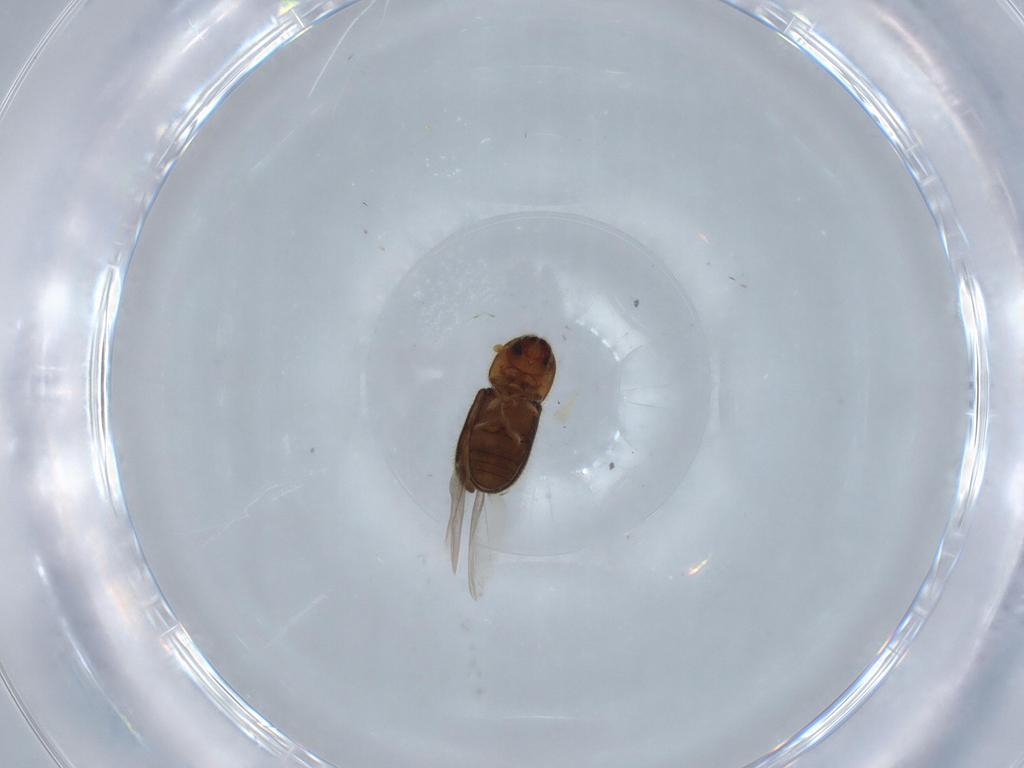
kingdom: Animalia
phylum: Arthropoda
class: Insecta
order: Coleoptera
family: Curculionidae
